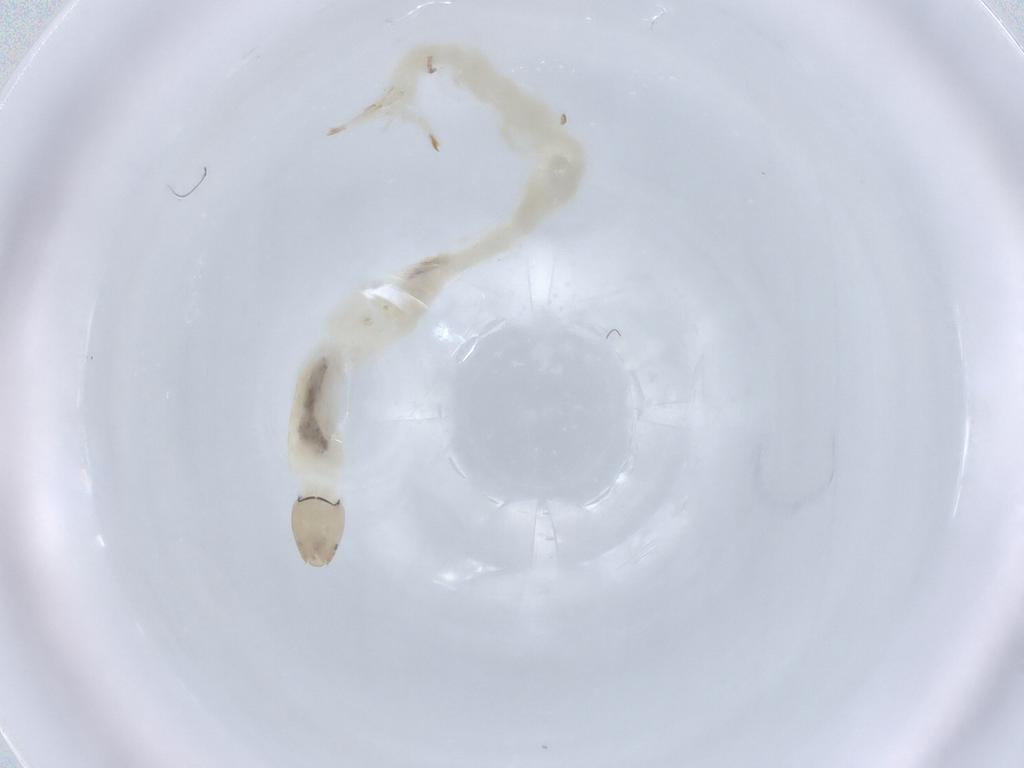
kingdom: Animalia
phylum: Arthropoda
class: Insecta
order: Diptera
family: Chironomidae
